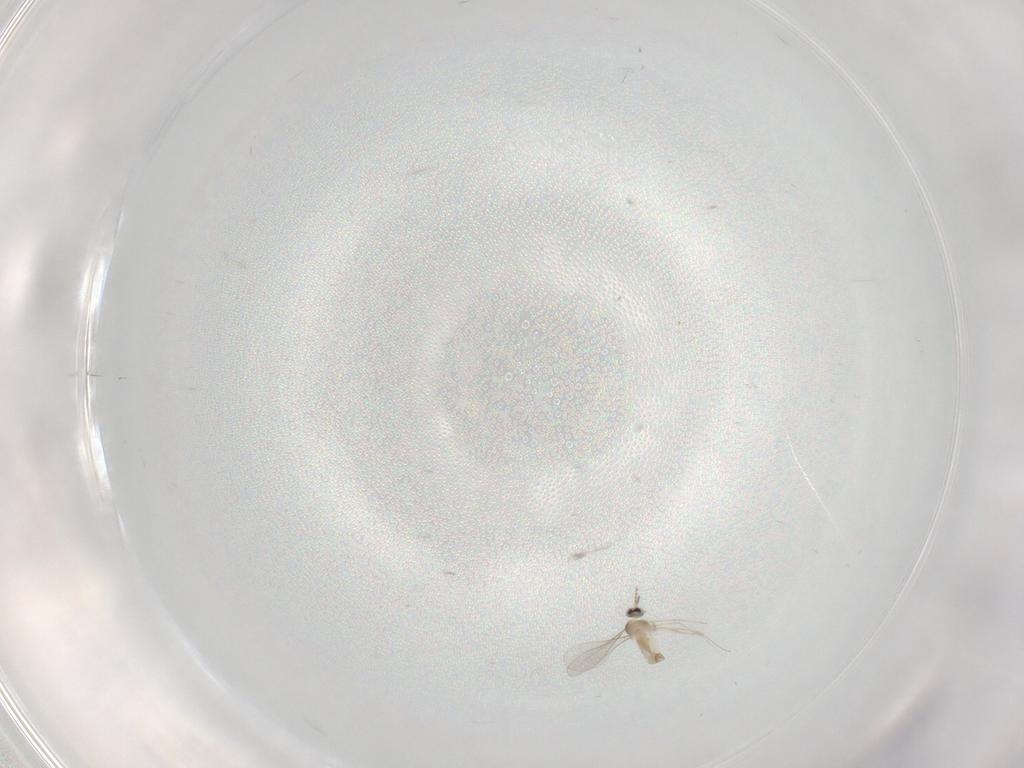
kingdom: Animalia
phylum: Arthropoda
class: Insecta
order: Diptera
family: Cecidomyiidae
